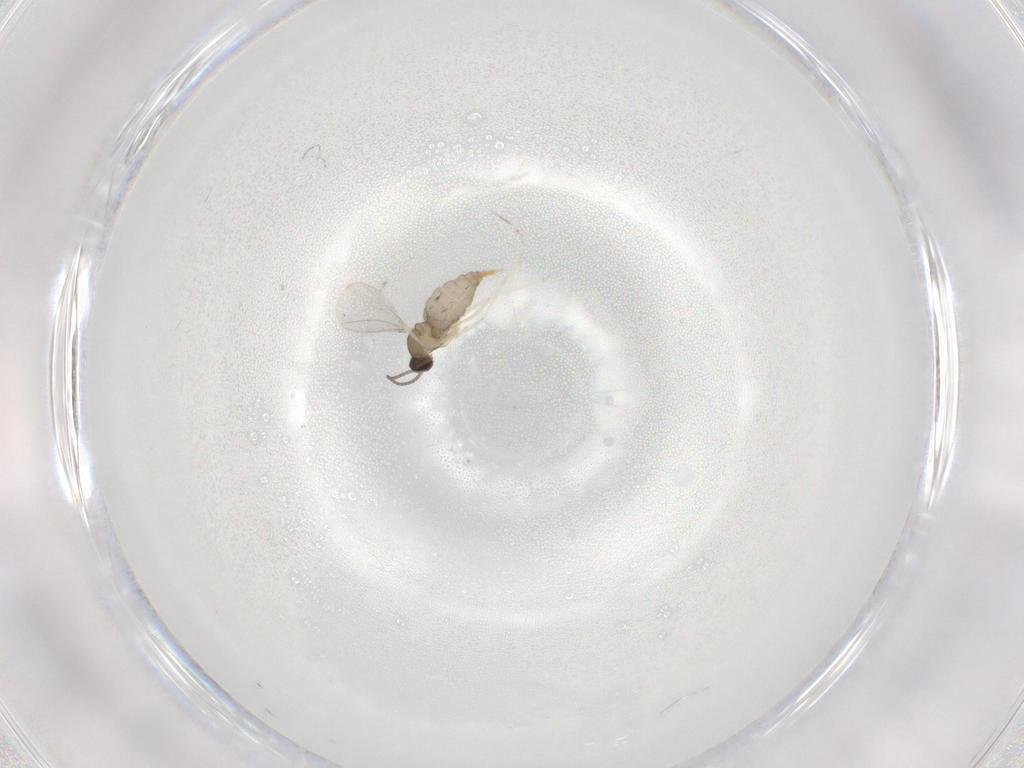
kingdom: Animalia
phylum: Arthropoda
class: Insecta
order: Diptera
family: Cecidomyiidae
